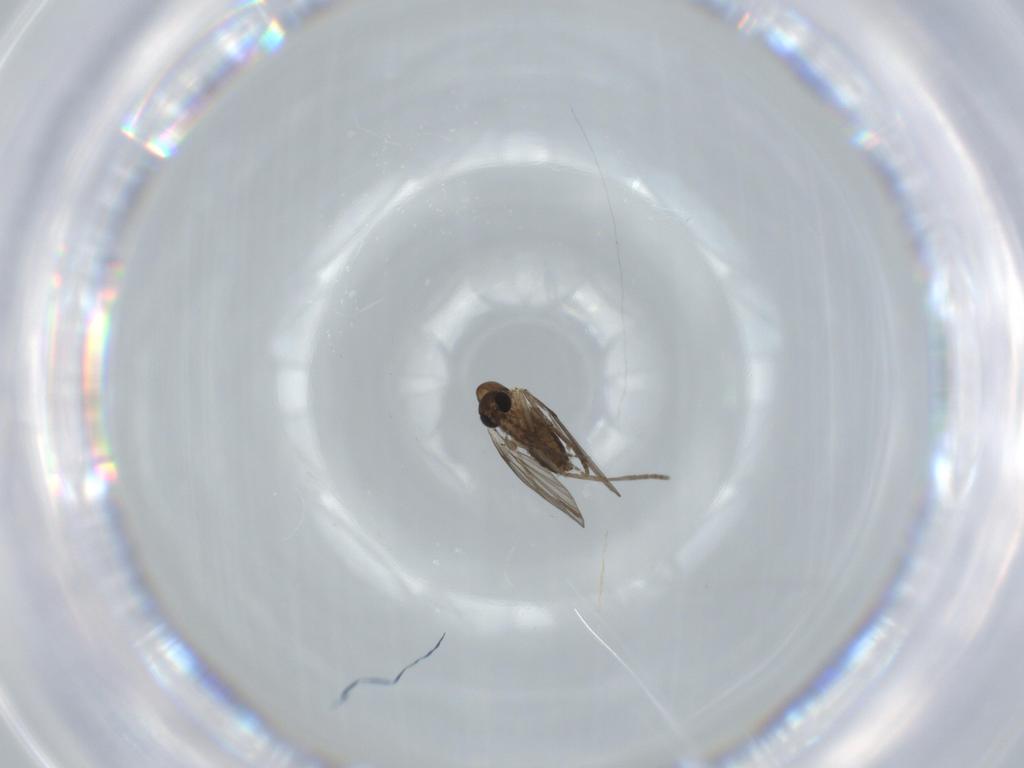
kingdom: Animalia
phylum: Arthropoda
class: Insecta
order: Diptera
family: Psychodidae
